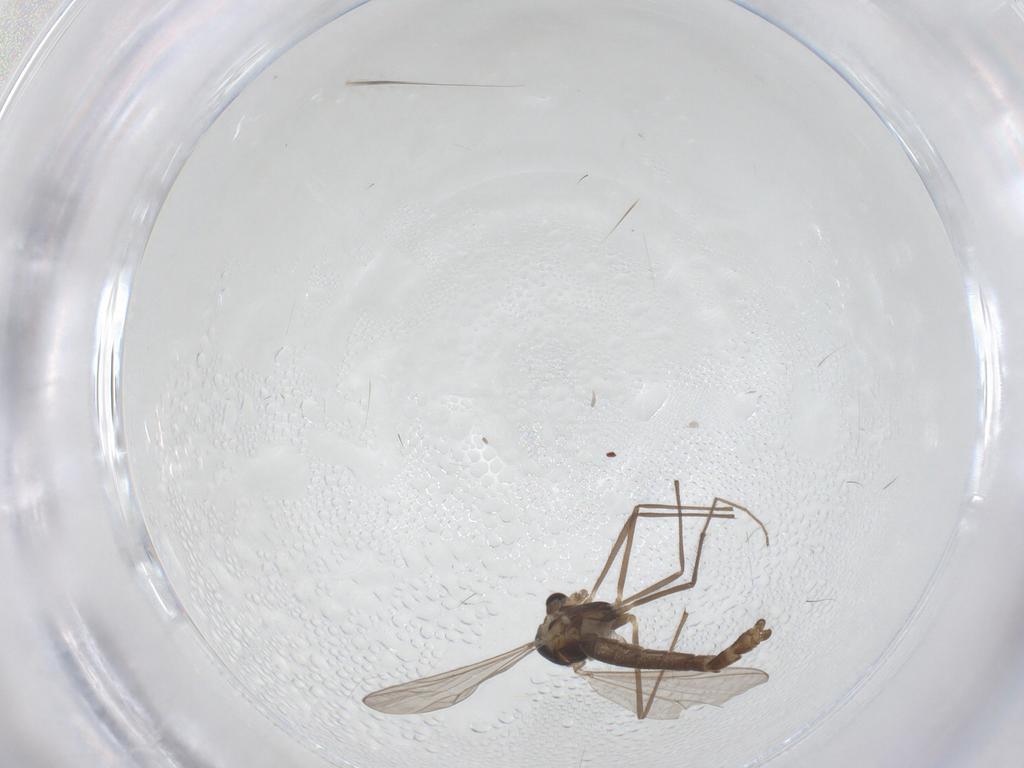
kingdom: Animalia
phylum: Arthropoda
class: Insecta
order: Diptera
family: Chironomidae
